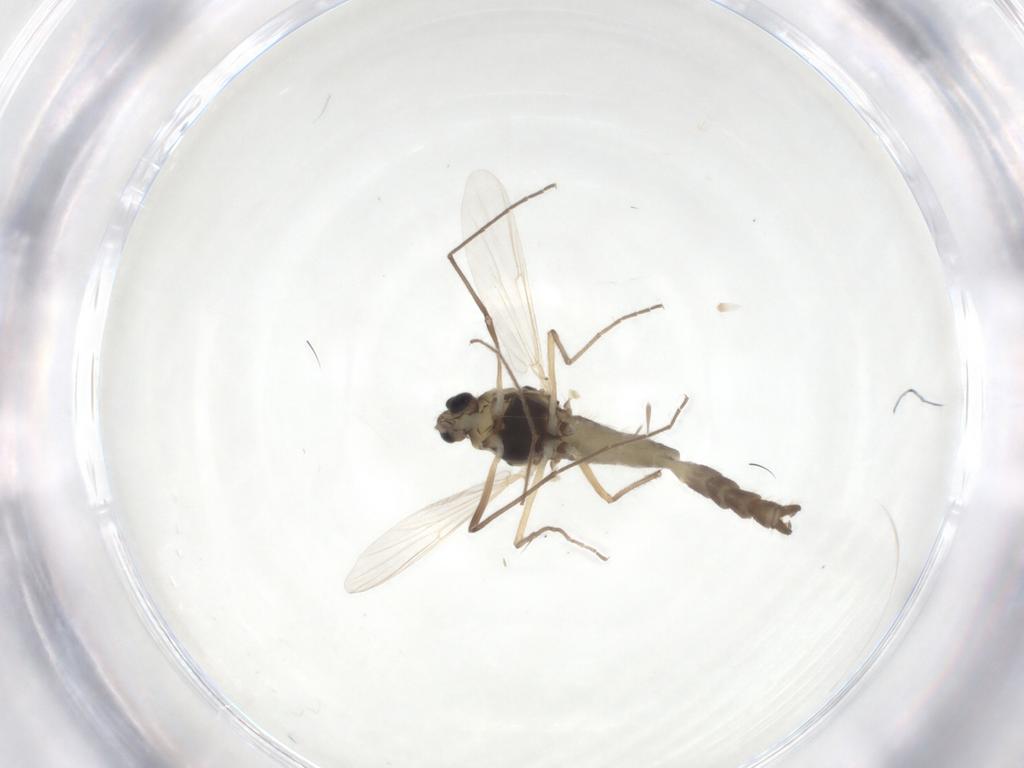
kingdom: Animalia
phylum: Arthropoda
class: Insecta
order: Diptera
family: Chironomidae
